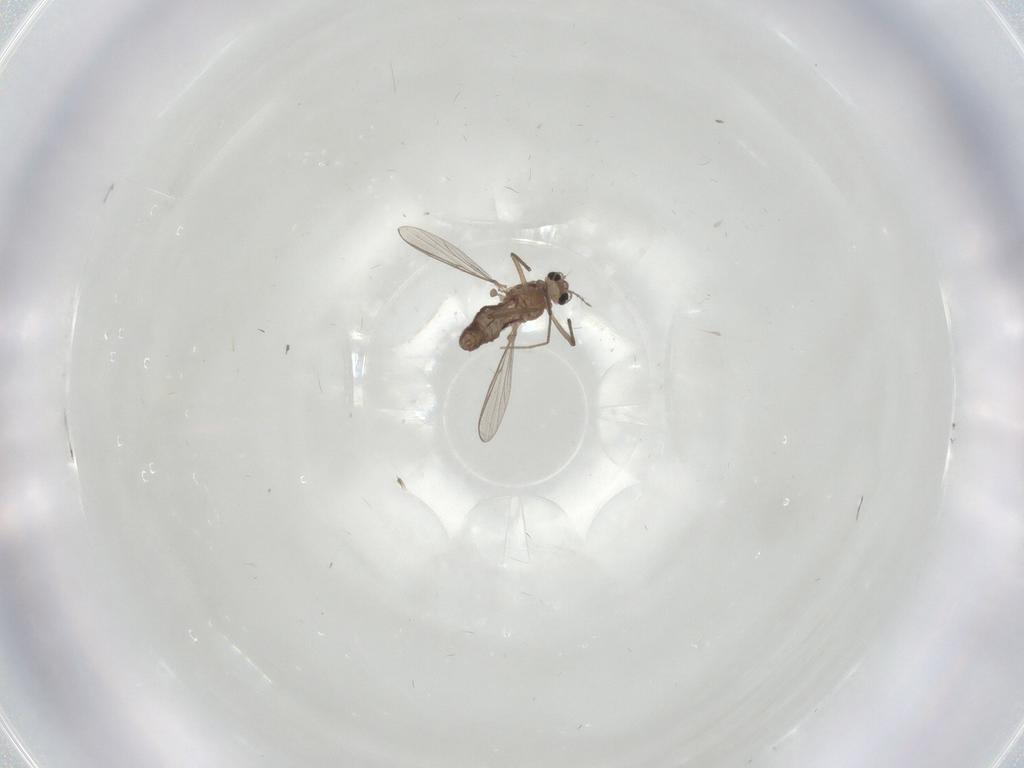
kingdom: Animalia
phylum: Arthropoda
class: Insecta
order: Diptera
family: Chironomidae
